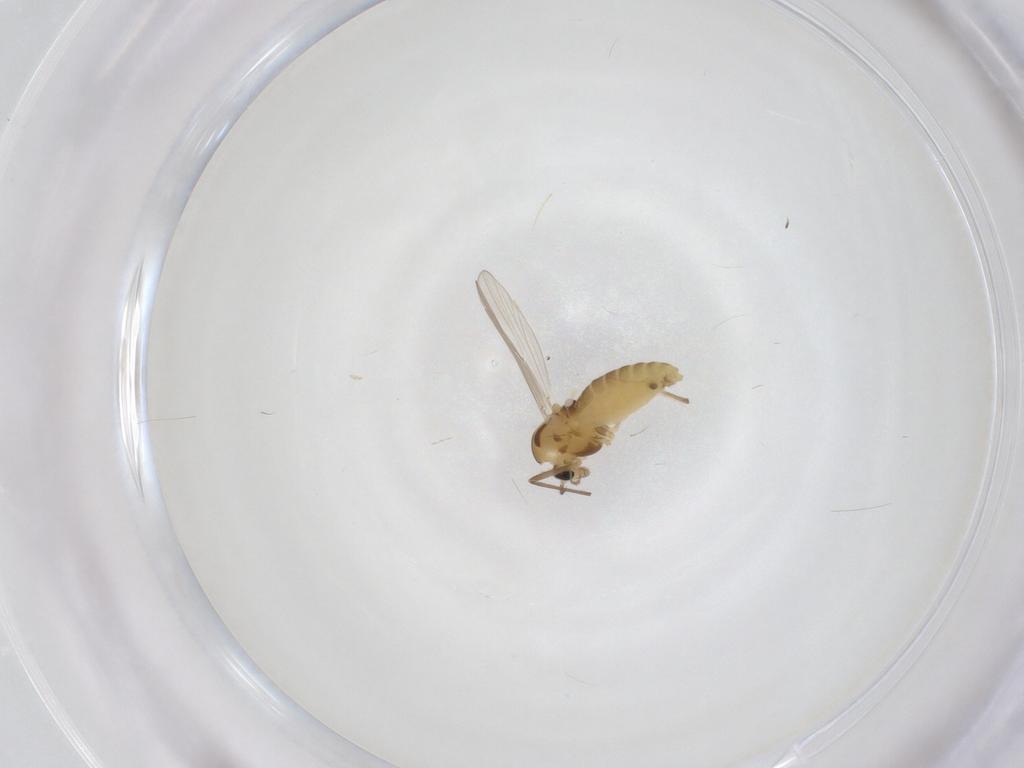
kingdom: Animalia
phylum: Arthropoda
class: Insecta
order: Diptera
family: Chironomidae
